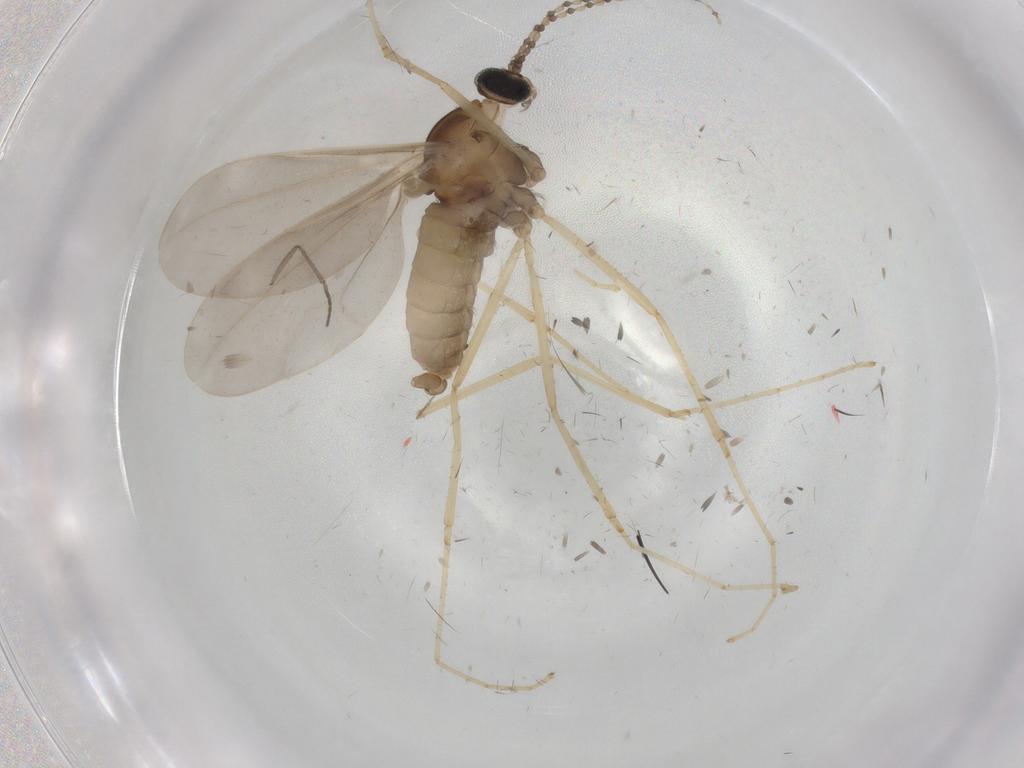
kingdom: Animalia
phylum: Arthropoda
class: Insecta
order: Diptera
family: Cecidomyiidae
